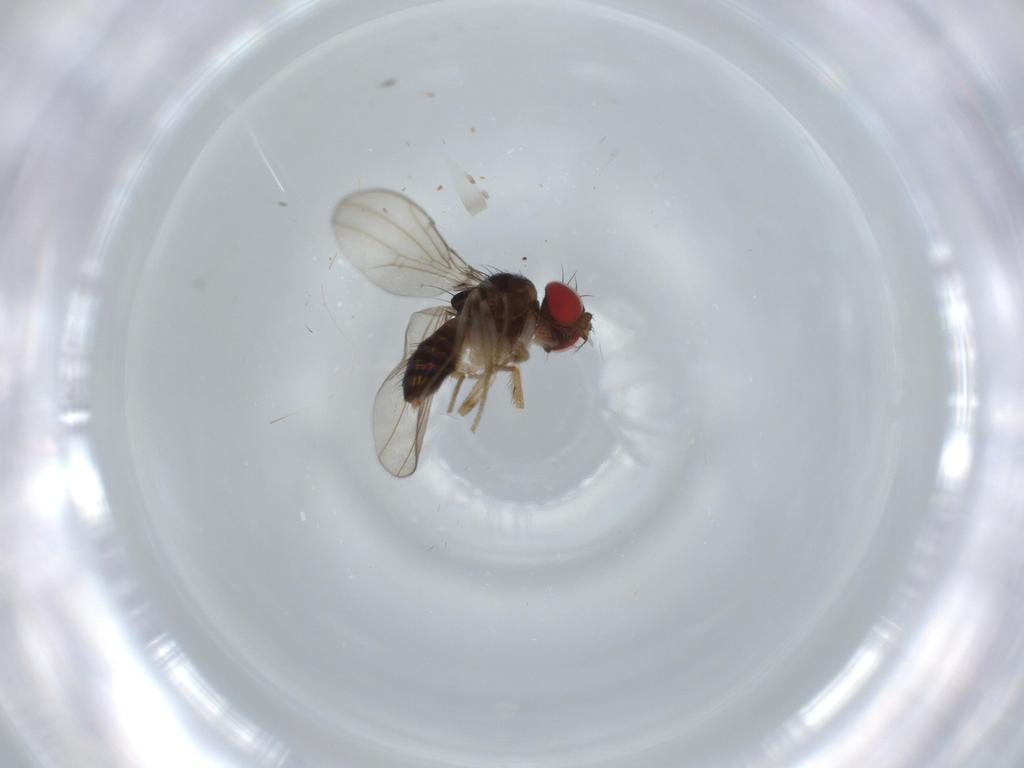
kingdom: Animalia
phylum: Arthropoda
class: Insecta
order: Diptera
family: Drosophilidae
